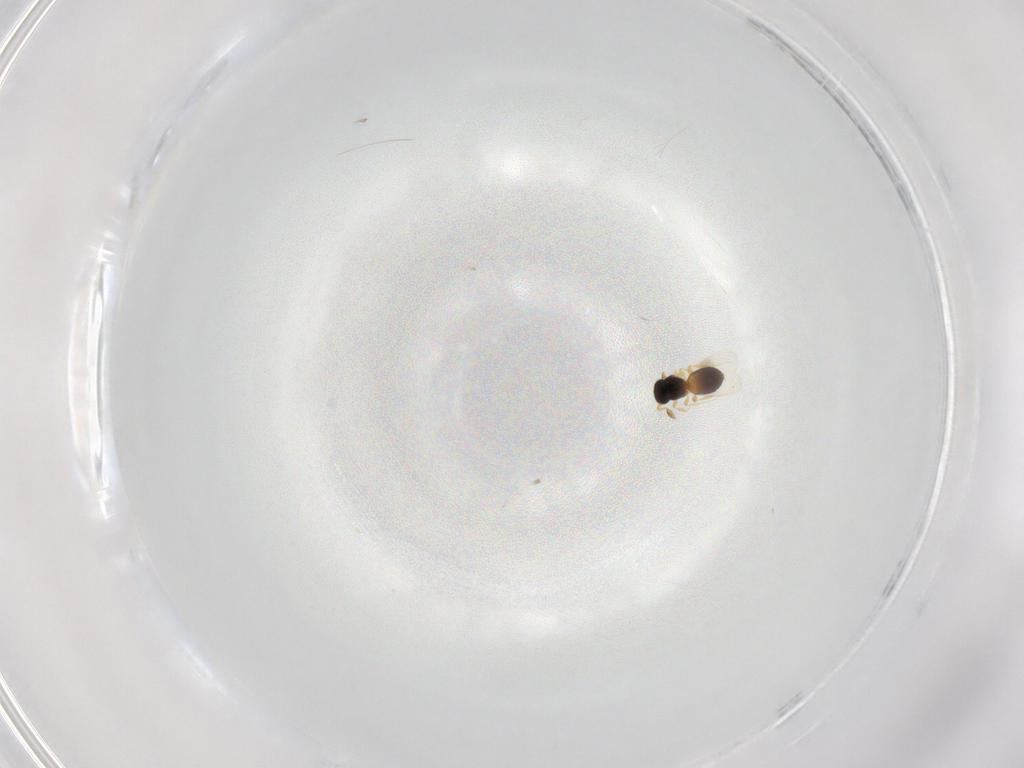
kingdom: Animalia
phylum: Arthropoda
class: Insecta
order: Hymenoptera
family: Platygastridae
